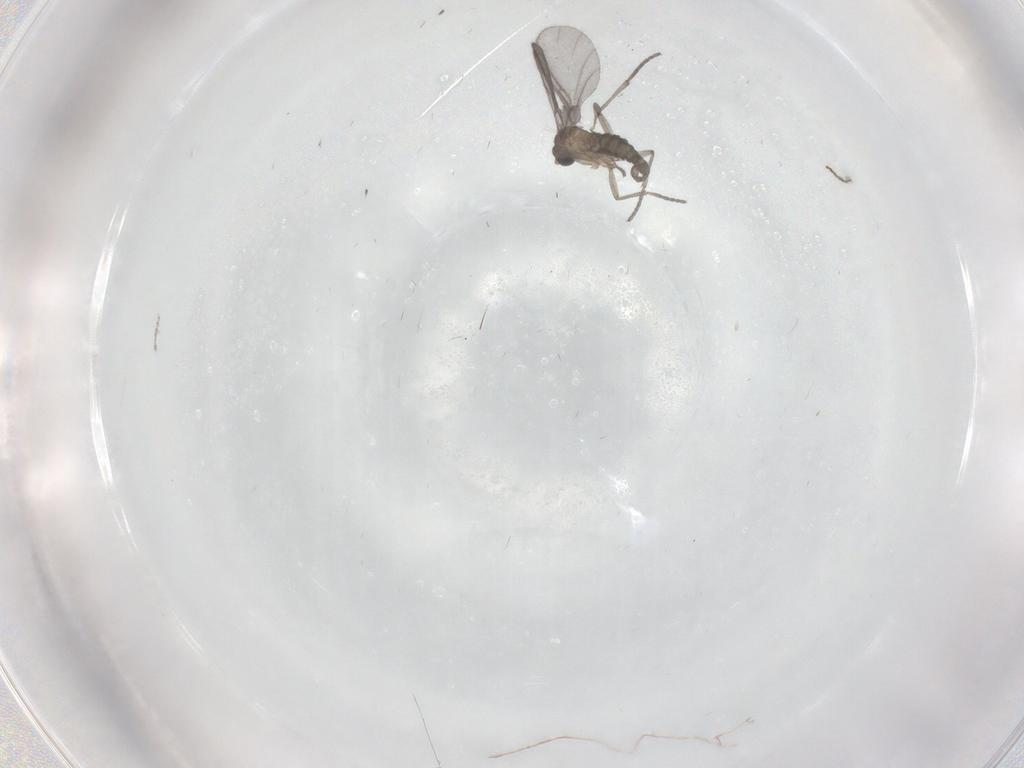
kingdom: Animalia
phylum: Arthropoda
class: Insecta
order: Diptera
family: Sciaridae
